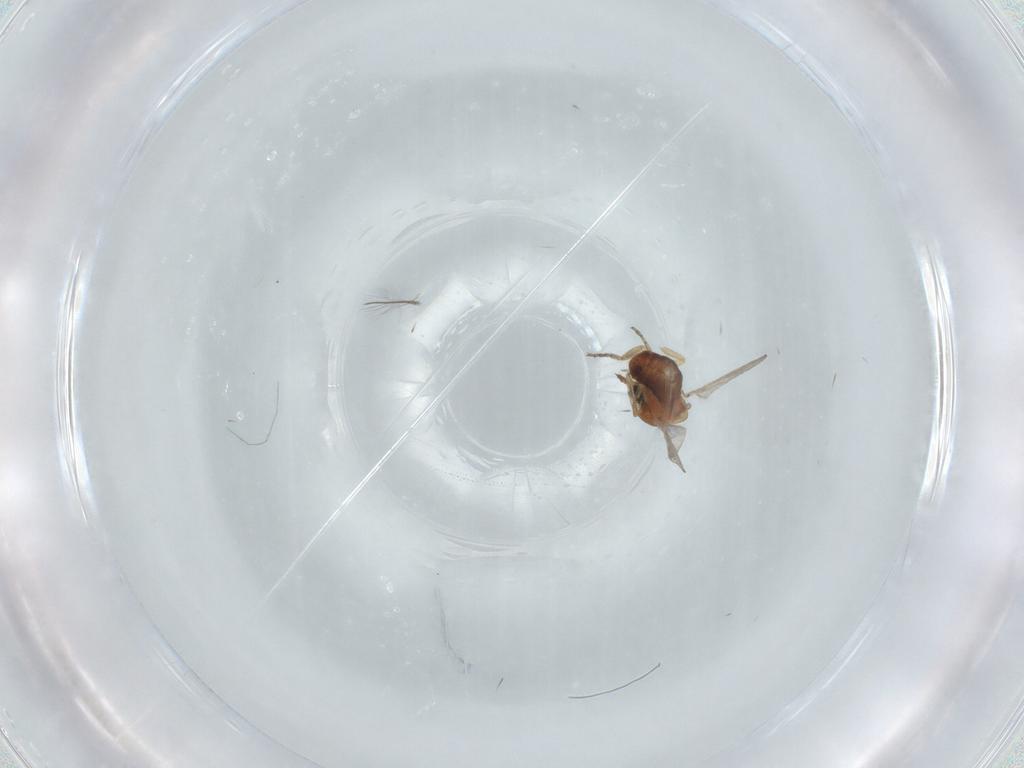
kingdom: Animalia
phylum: Arthropoda
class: Insecta
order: Diptera
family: Ceratopogonidae
